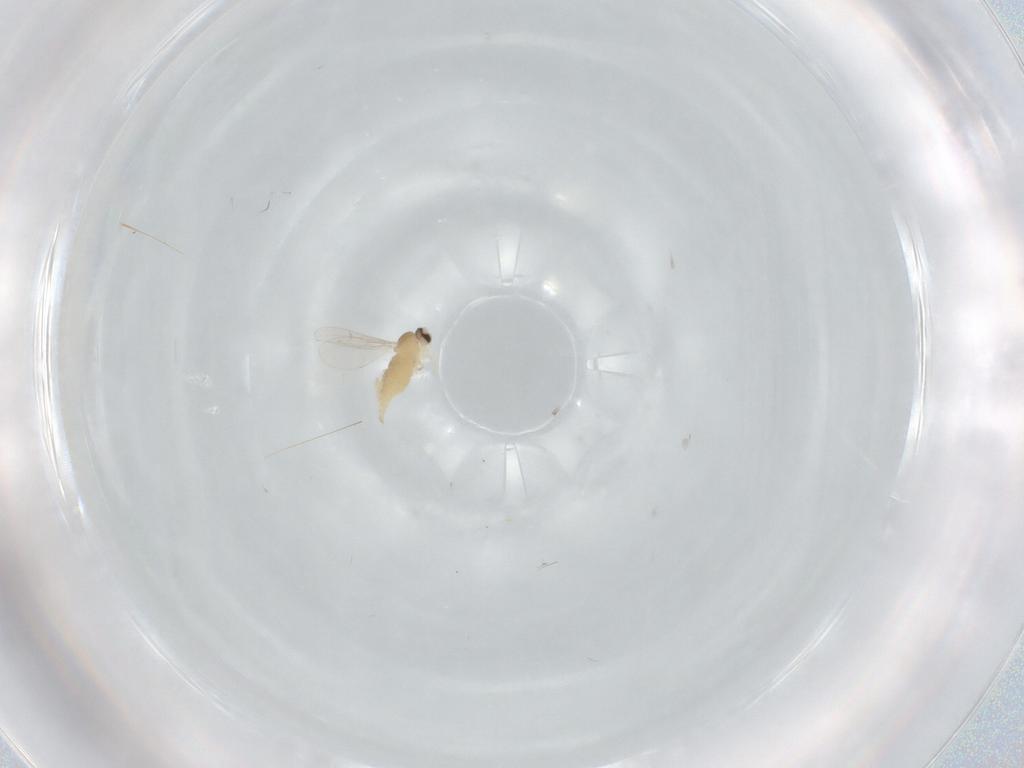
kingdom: Animalia
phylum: Arthropoda
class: Insecta
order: Diptera
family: Cecidomyiidae
